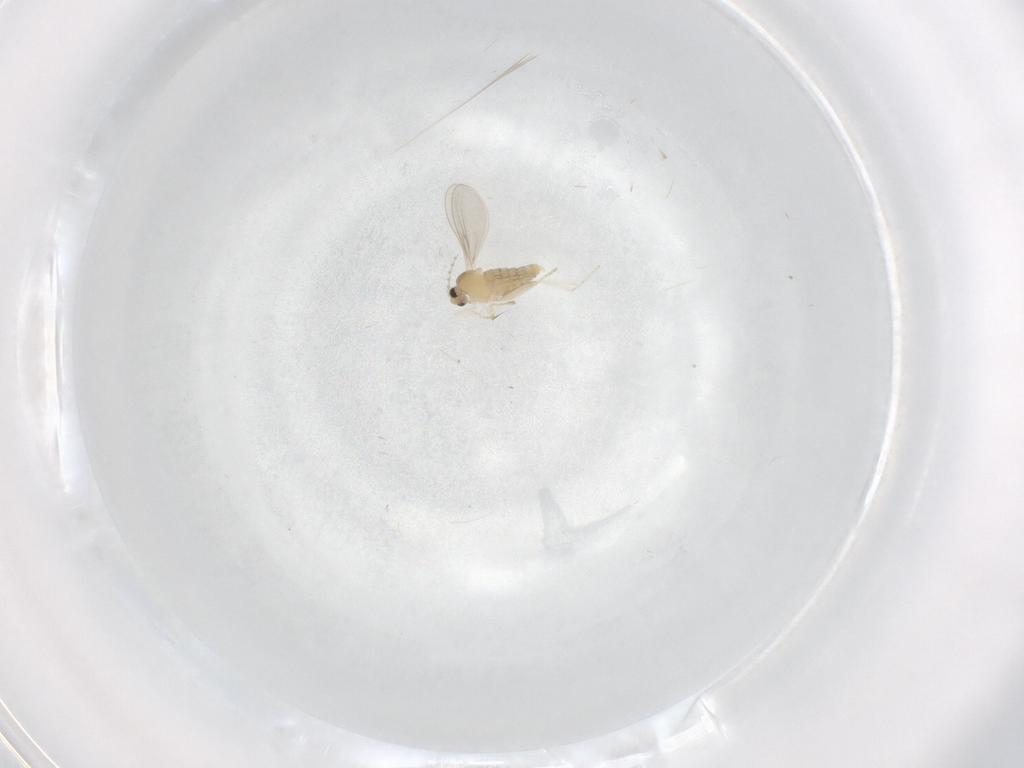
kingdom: Animalia
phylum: Arthropoda
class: Insecta
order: Diptera
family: Cecidomyiidae
